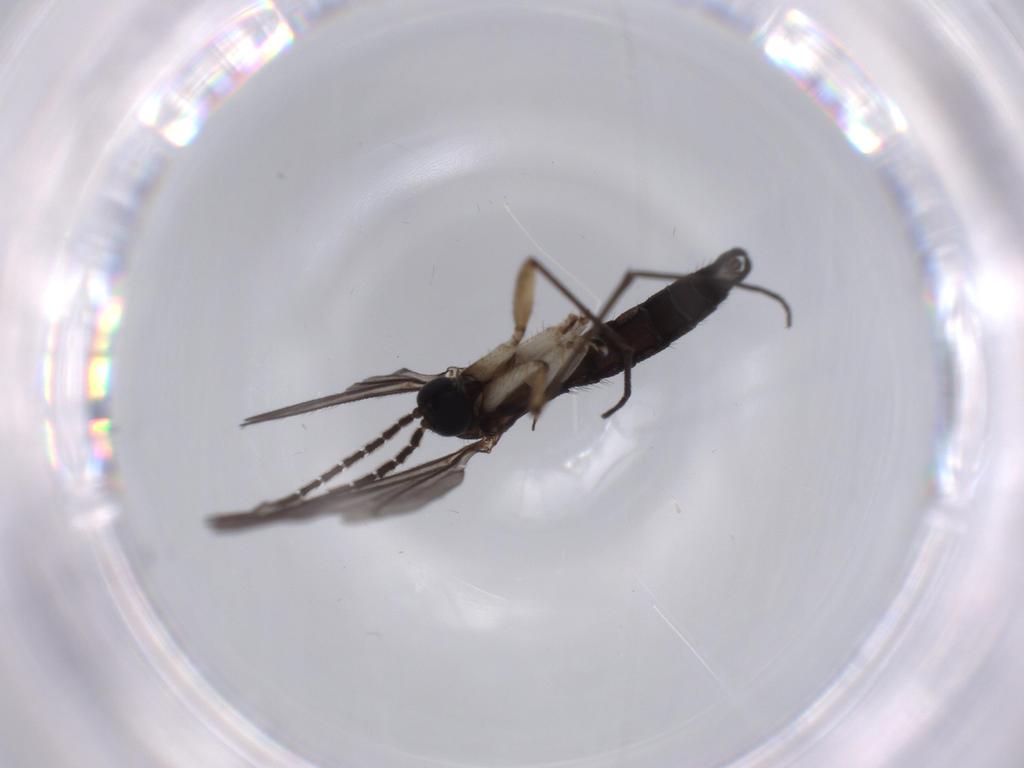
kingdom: Animalia
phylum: Arthropoda
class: Insecta
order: Diptera
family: Sciaridae
